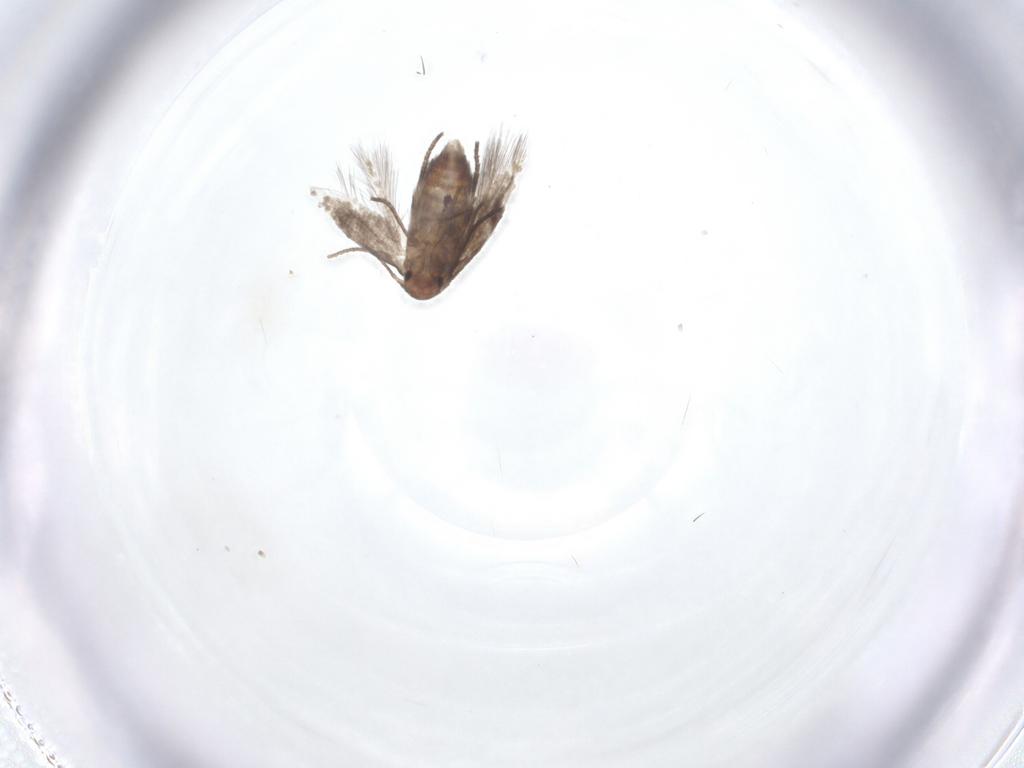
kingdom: Animalia
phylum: Arthropoda
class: Insecta
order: Lepidoptera
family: Lyonetiidae
